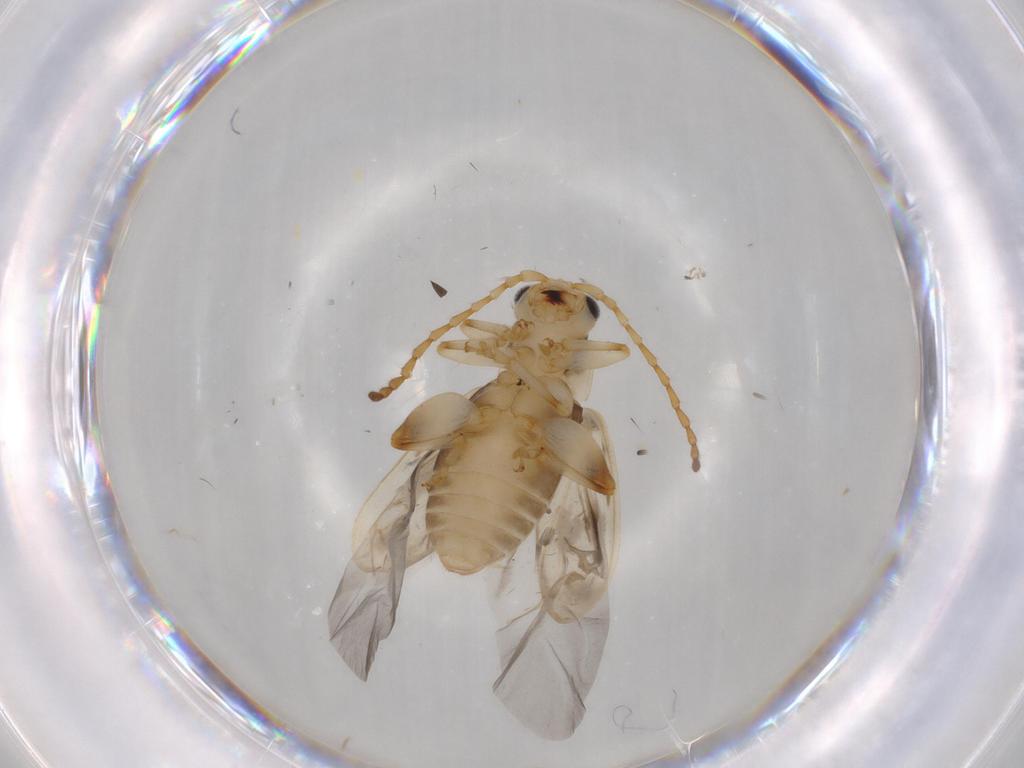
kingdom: Animalia
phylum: Arthropoda
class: Insecta
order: Coleoptera
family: Chrysomelidae
